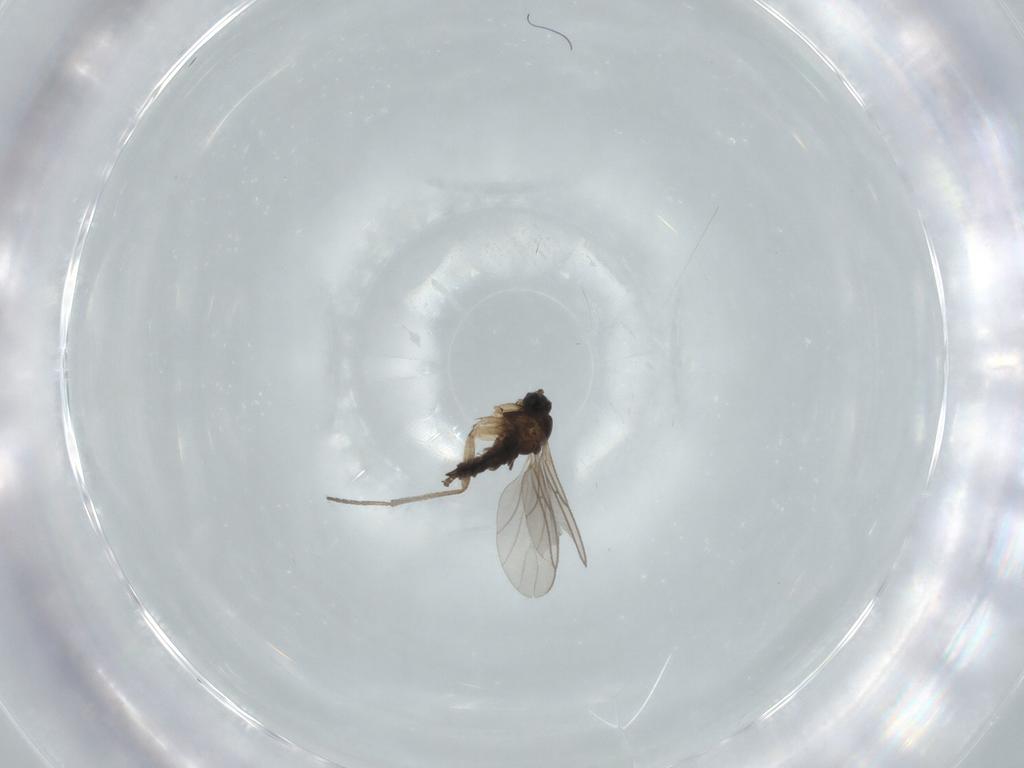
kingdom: Animalia
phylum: Arthropoda
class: Insecta
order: Diptera
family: Sciaridae
